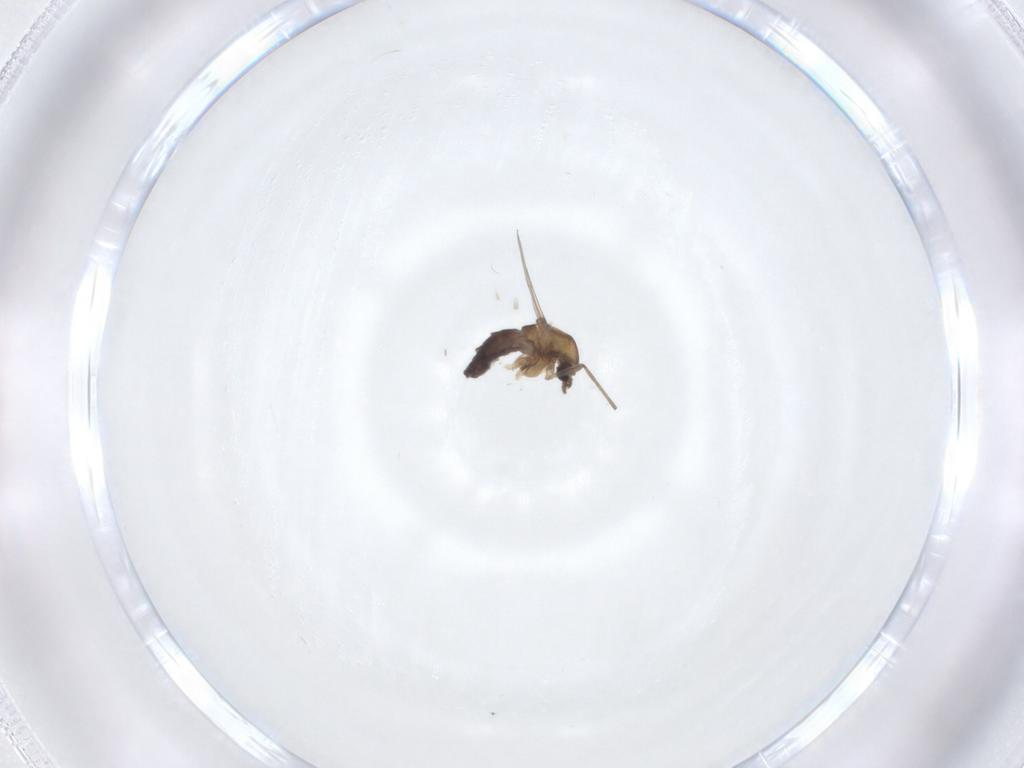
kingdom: Animalia
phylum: Arthropoda
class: Insecta
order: Diptera
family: Chironomidae
